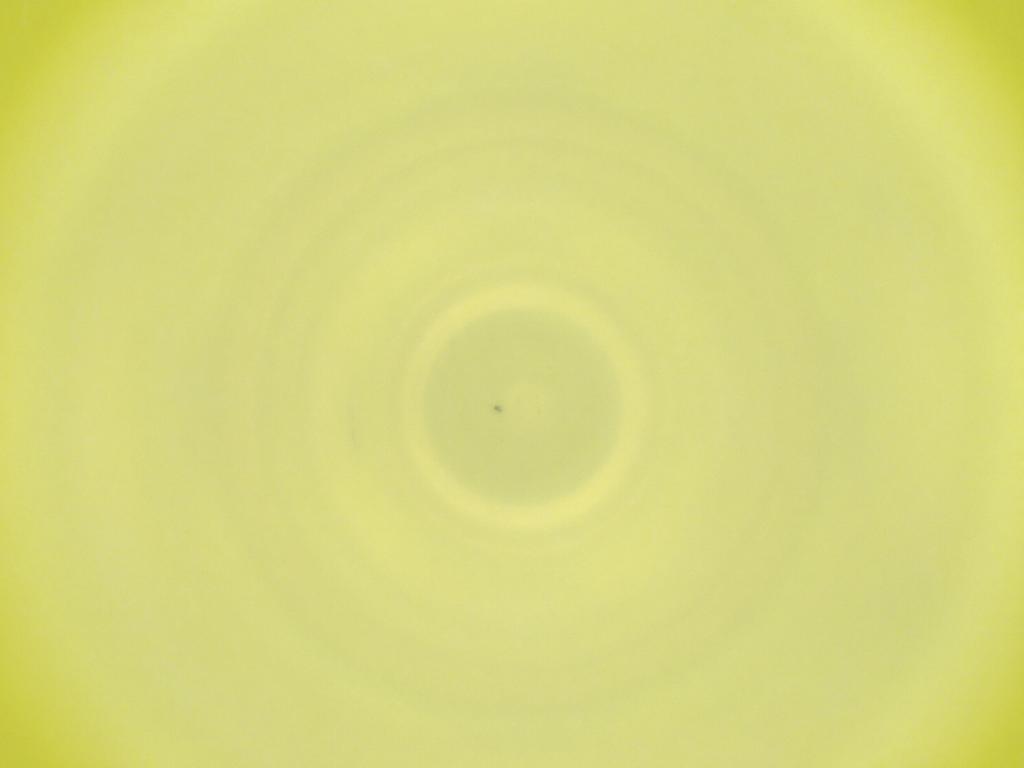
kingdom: Animalia
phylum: Arthropoda
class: Insecta
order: Diptera
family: Cecidomyiidae
